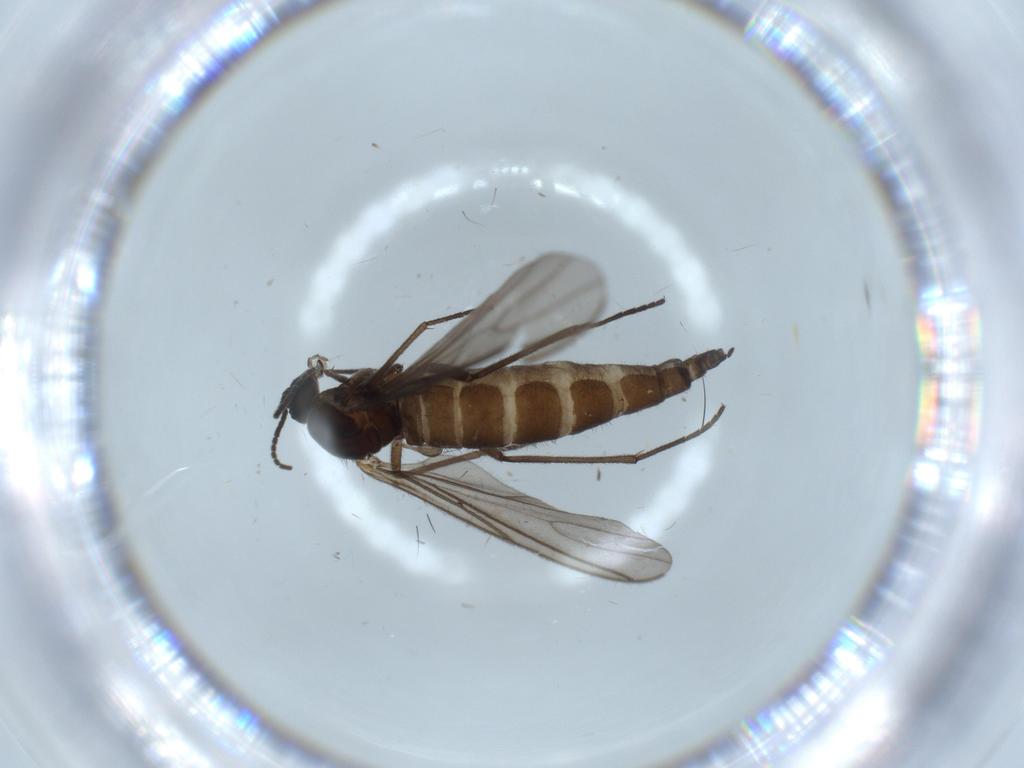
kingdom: Animalia
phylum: Arthropoda
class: Insecta
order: Diptera
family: Sciaridae
